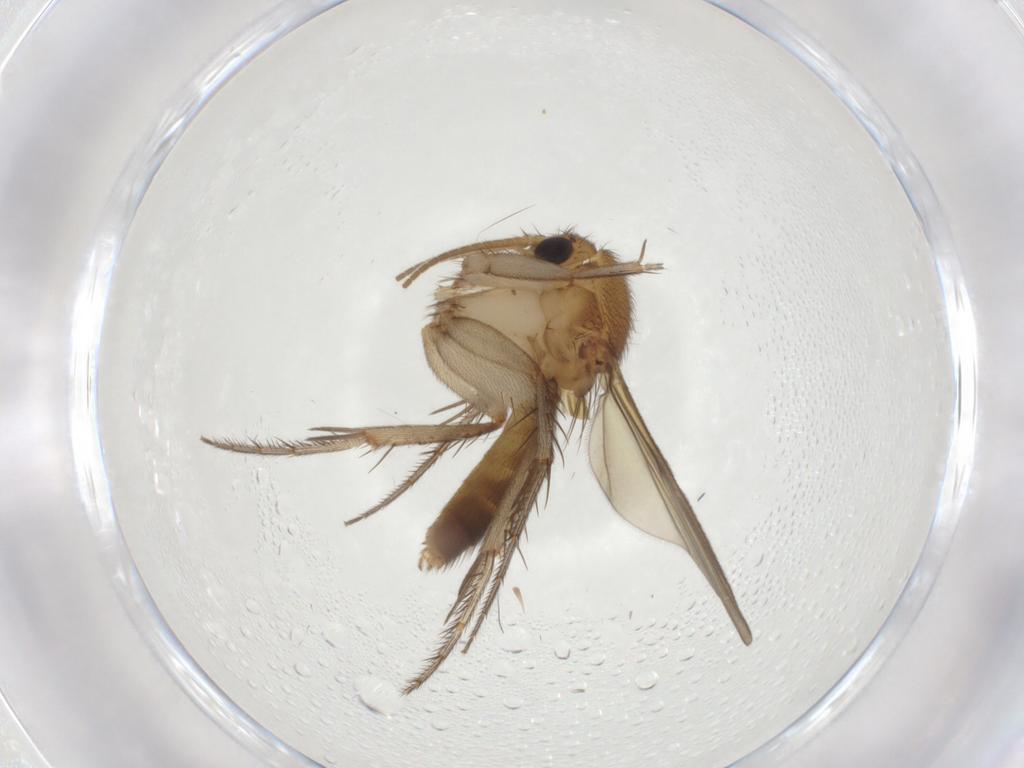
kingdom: Animalia
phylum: Arthropoda
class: Insecta
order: Diptera
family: Mycetophilidae
